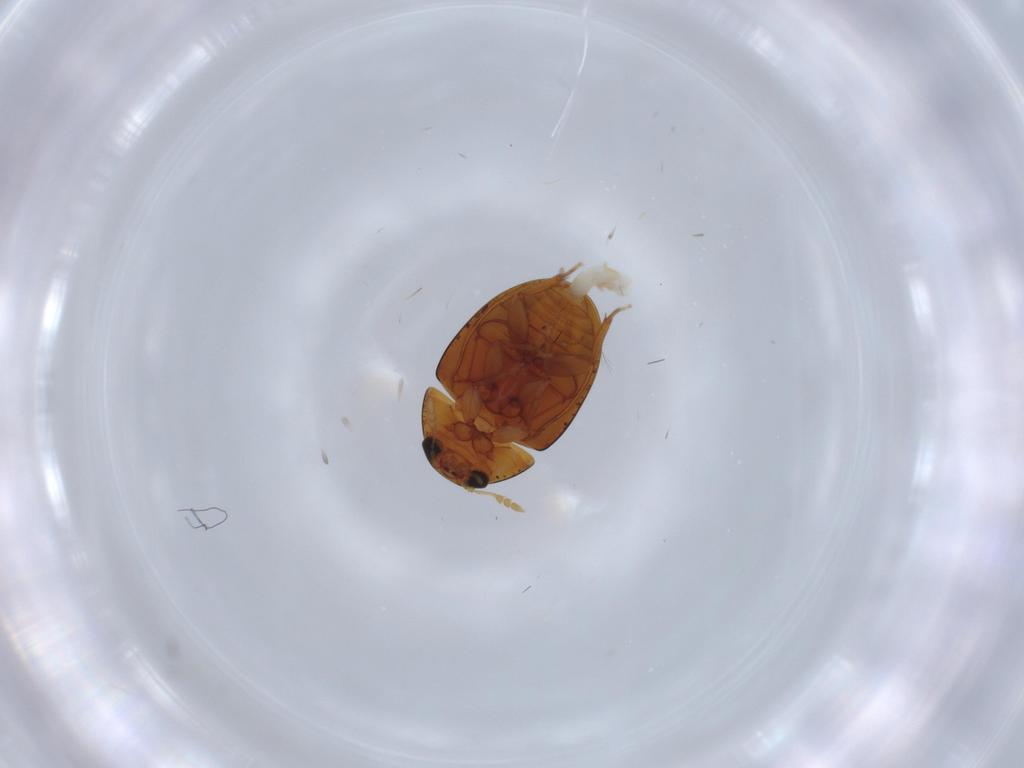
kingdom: Animalia
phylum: Arthropoda
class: Insecta
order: Coleoptera
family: Phalacridae
